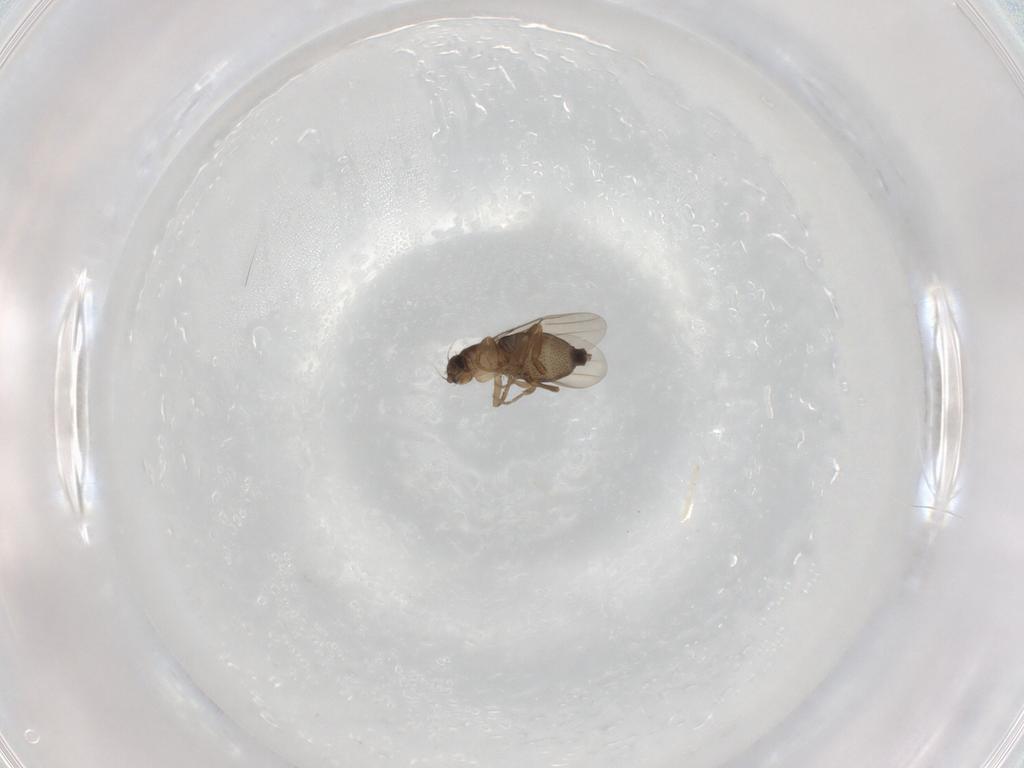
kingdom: Animalia
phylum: Arthropoda
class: Insecta
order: Diptera
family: Phoridae
